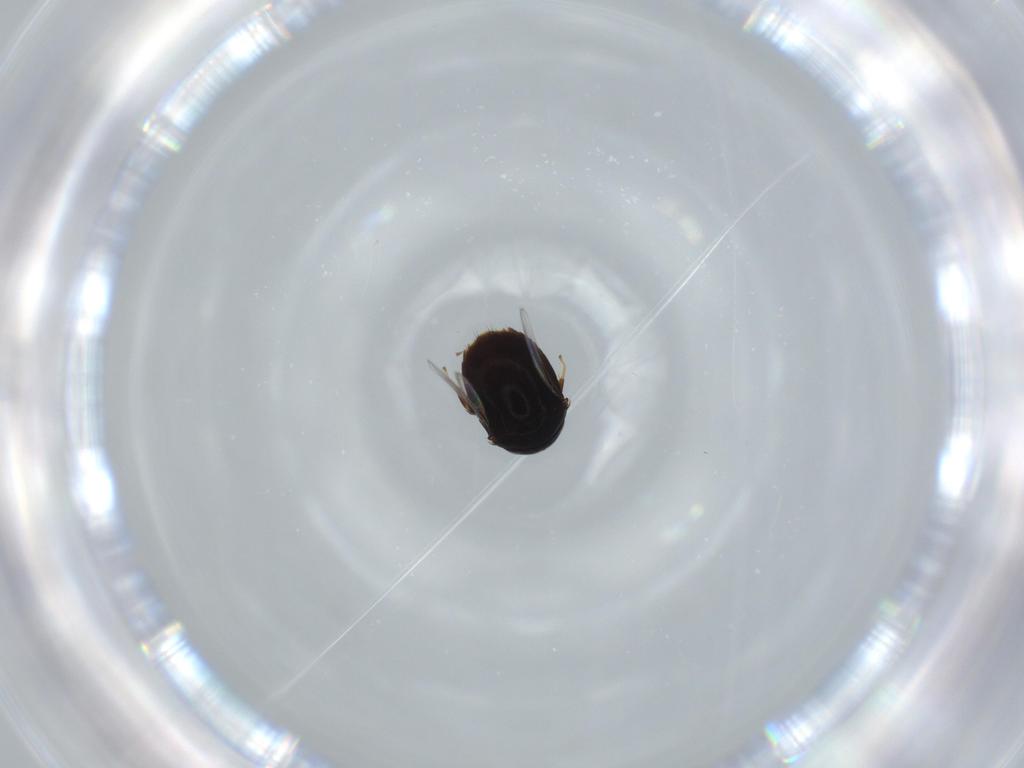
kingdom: Animalia
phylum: Arthropoda
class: Insecta
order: Hymenoptera
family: Formicidae
